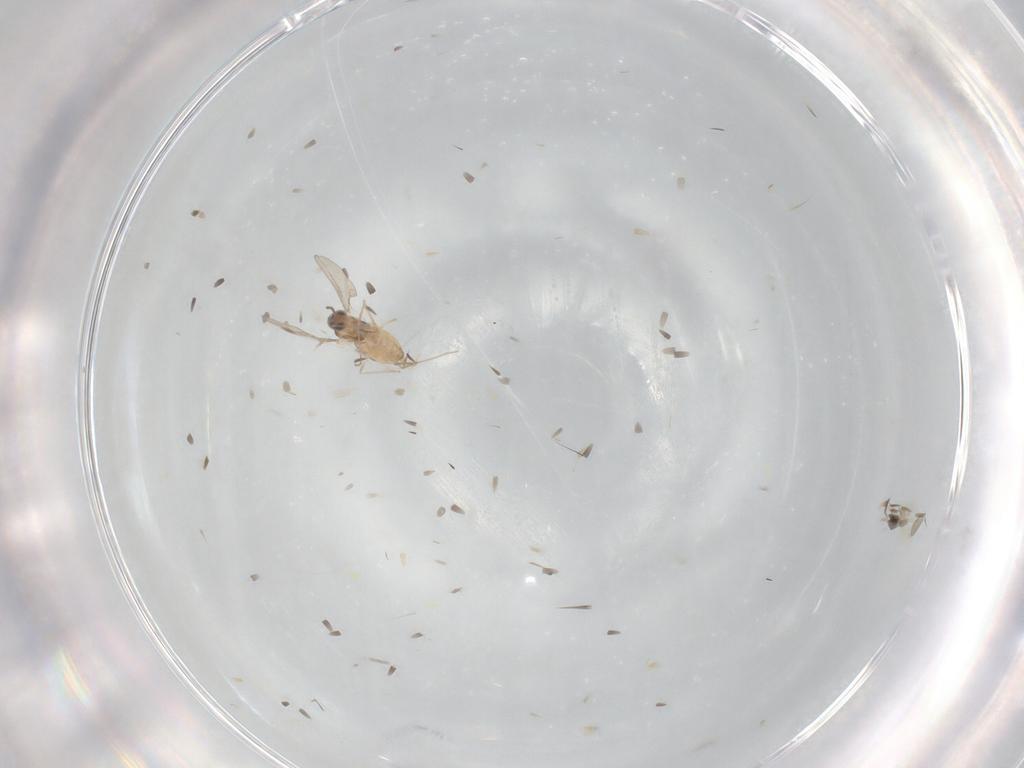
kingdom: Animalia
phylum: Arthropoda
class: Insecta
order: Diptera
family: Cecidomyiidae
